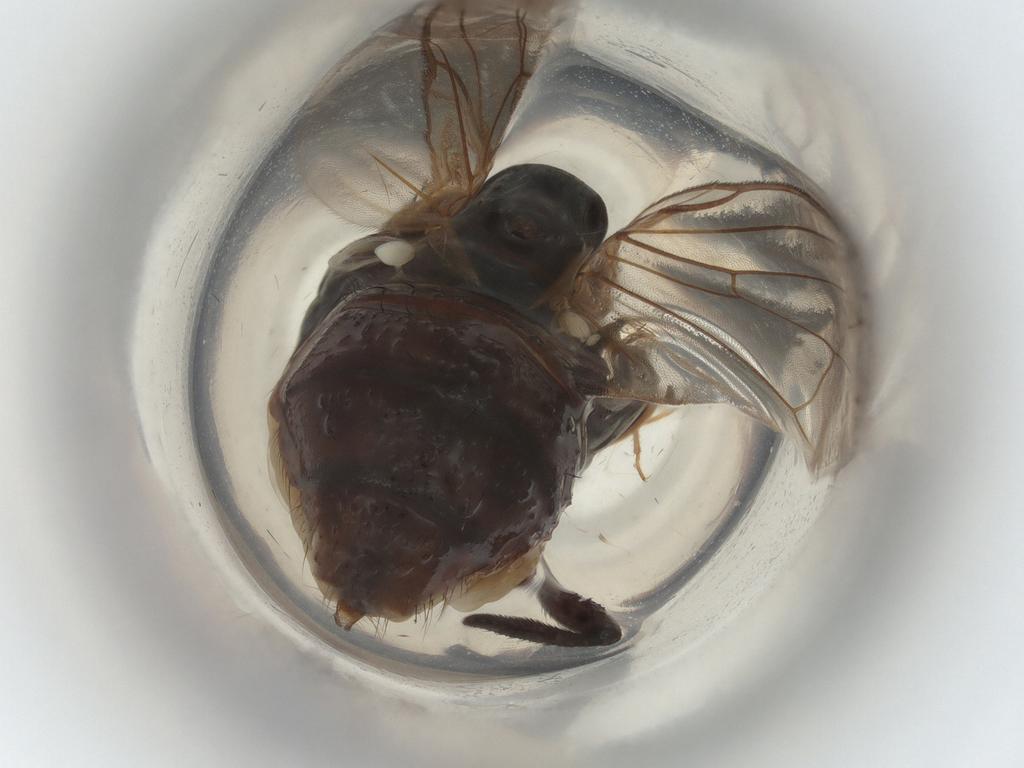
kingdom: Animalia
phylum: Arthropoda
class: Insecta
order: Diptera
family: Anthomyiidae
